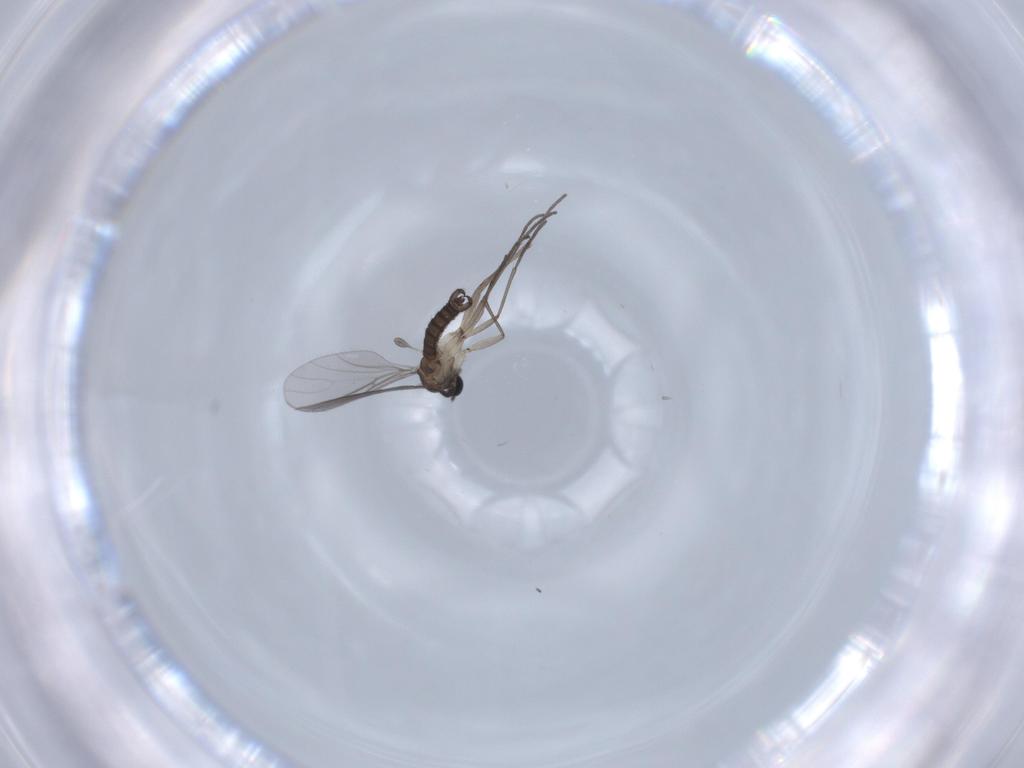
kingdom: Animalia
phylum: Arthropoda
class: Insecta
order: Diptera
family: Sciaridae
